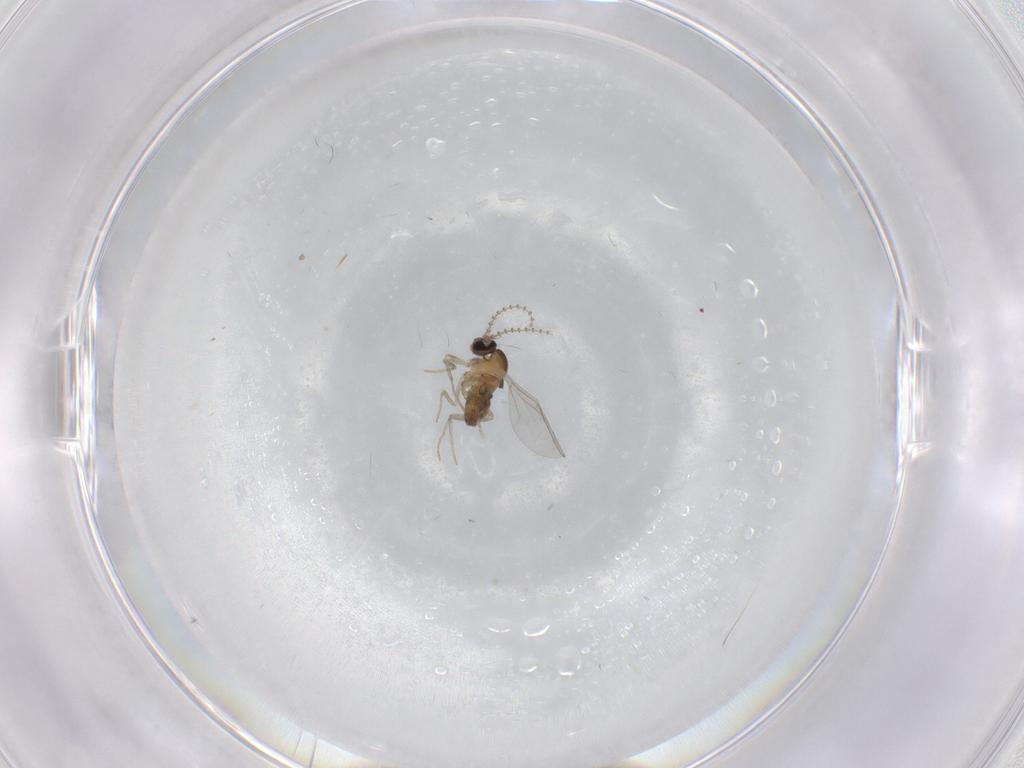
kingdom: Animalia
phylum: Arthropoda
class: Insecta
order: Diptera
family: Cecidomyiidae
